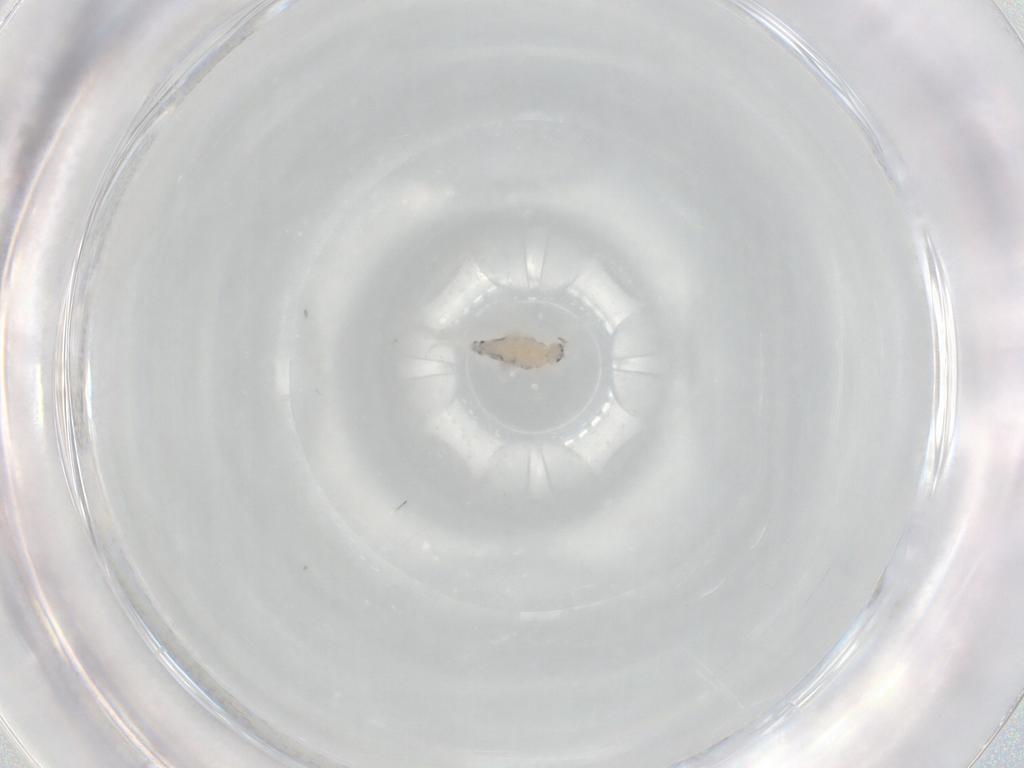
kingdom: Animalia
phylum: Arthropoda
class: Collembola
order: Entomobryomorpha
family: Entomobryidae
